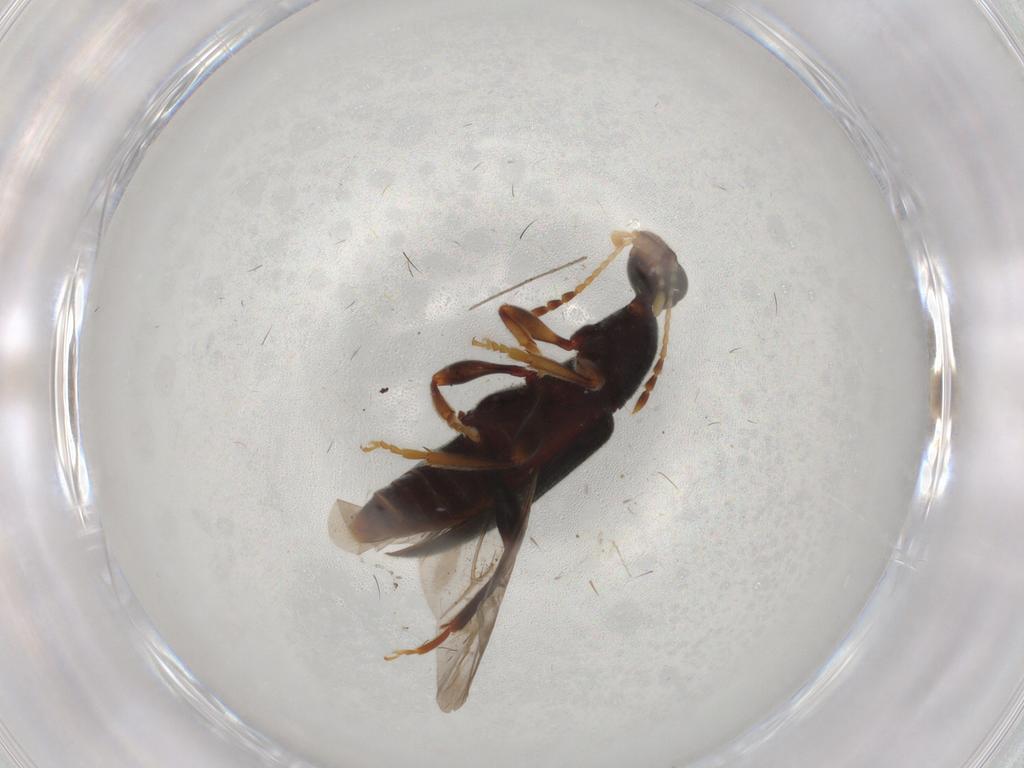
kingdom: Animalia
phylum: Arthropoda
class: Insecta
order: Coleoptera
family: Anthicidae
